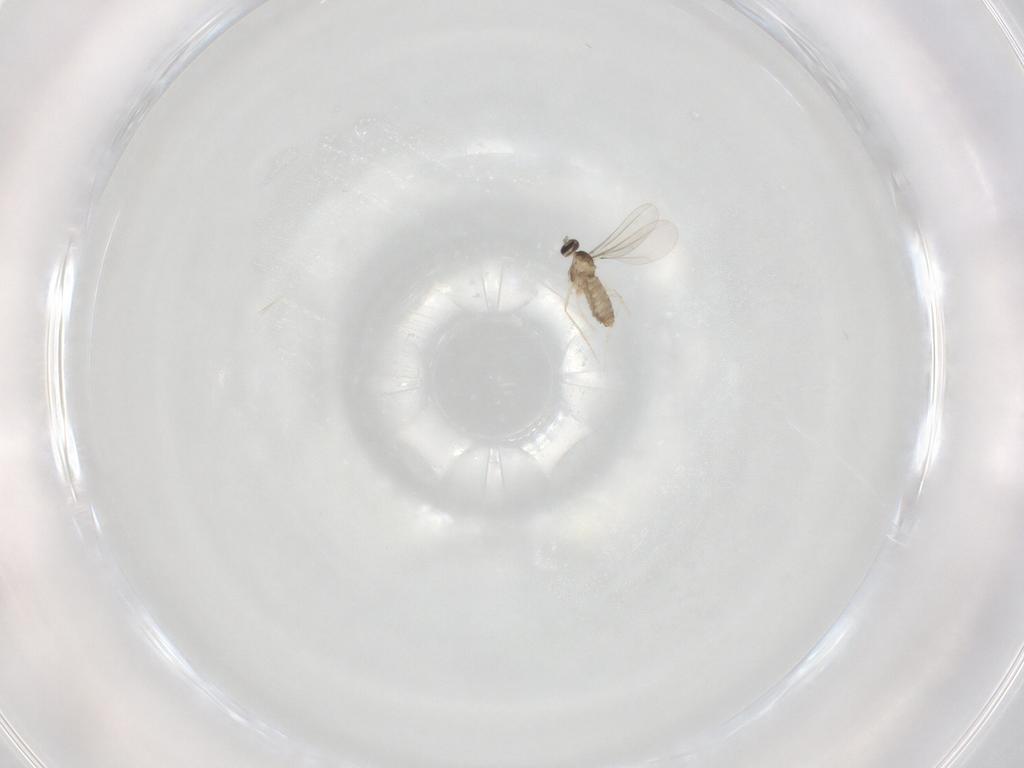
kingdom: Animalia
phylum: Arthropoda
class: Insecta
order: Diptera
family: Cecidomyiidae
